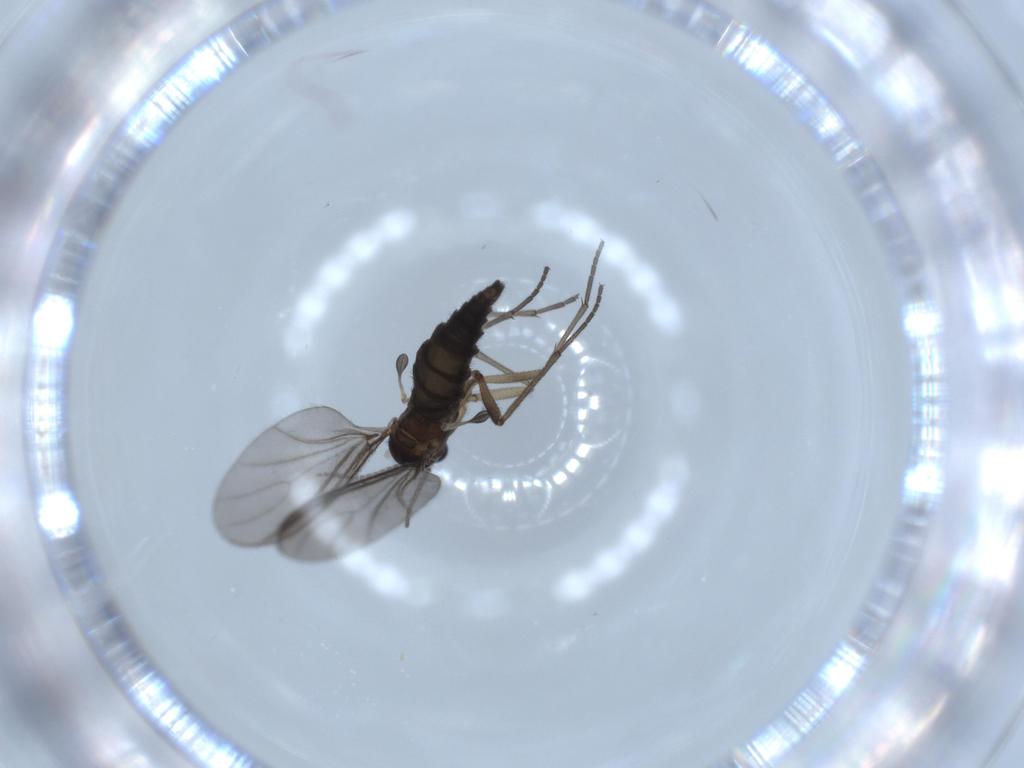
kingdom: Animalia
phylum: Arthropoda
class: Insecta
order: Diptera
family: Sciaridae
